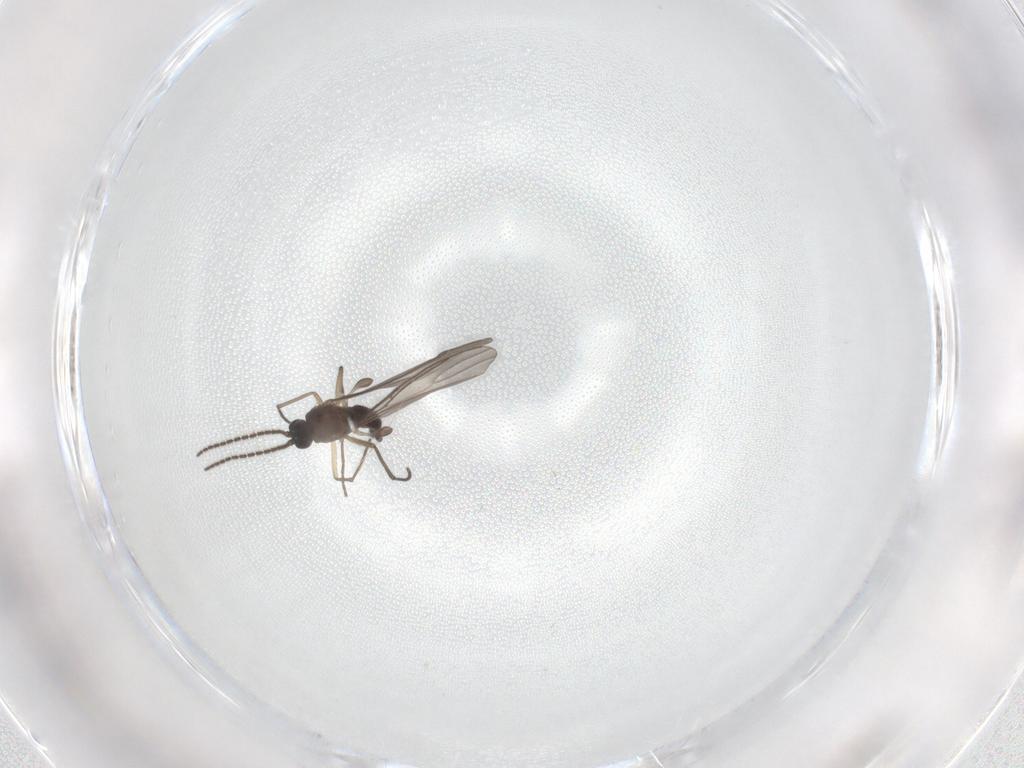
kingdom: Animalia
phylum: Arthropoda
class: Insecta
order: Diptera
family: Sciaridae
